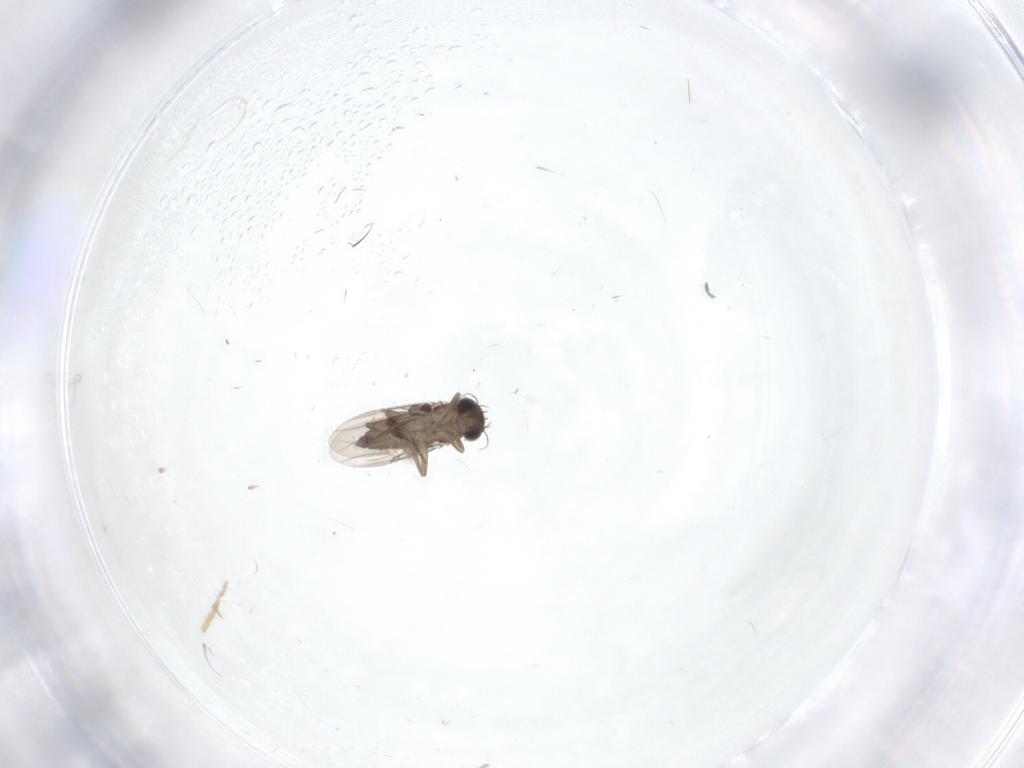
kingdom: Animalia
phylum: Arthropoda
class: Insecta
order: Diptera
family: Phoridae
